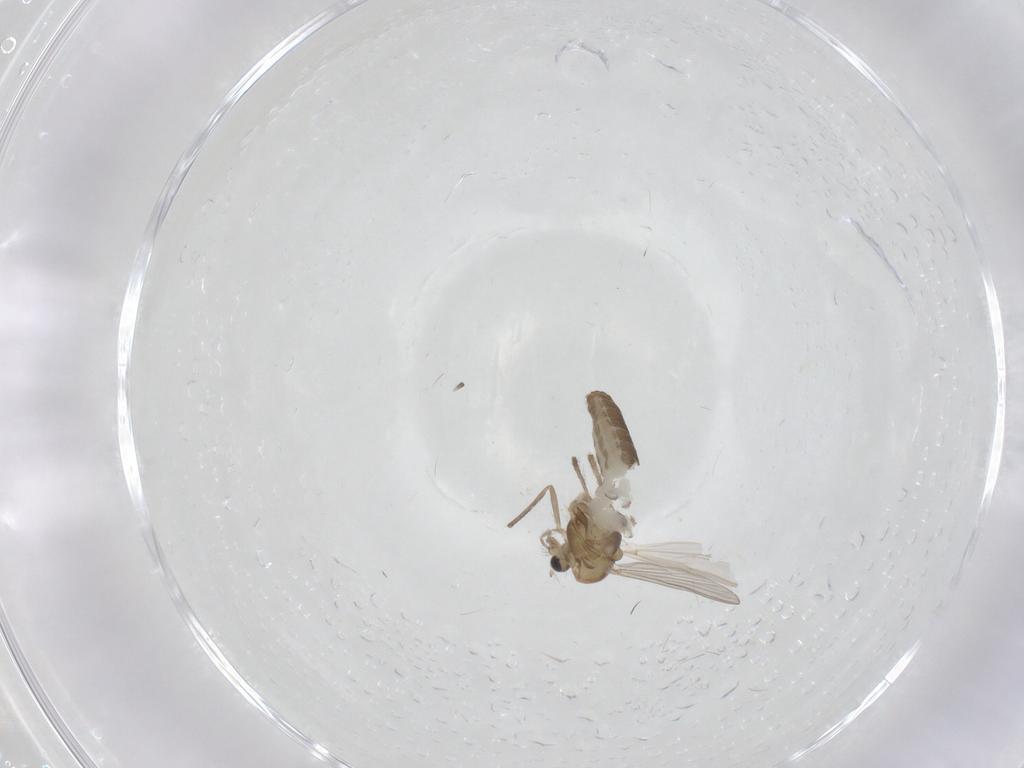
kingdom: Animalia
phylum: Arthropoda
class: Insecta
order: Diptera
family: Chironomidae
